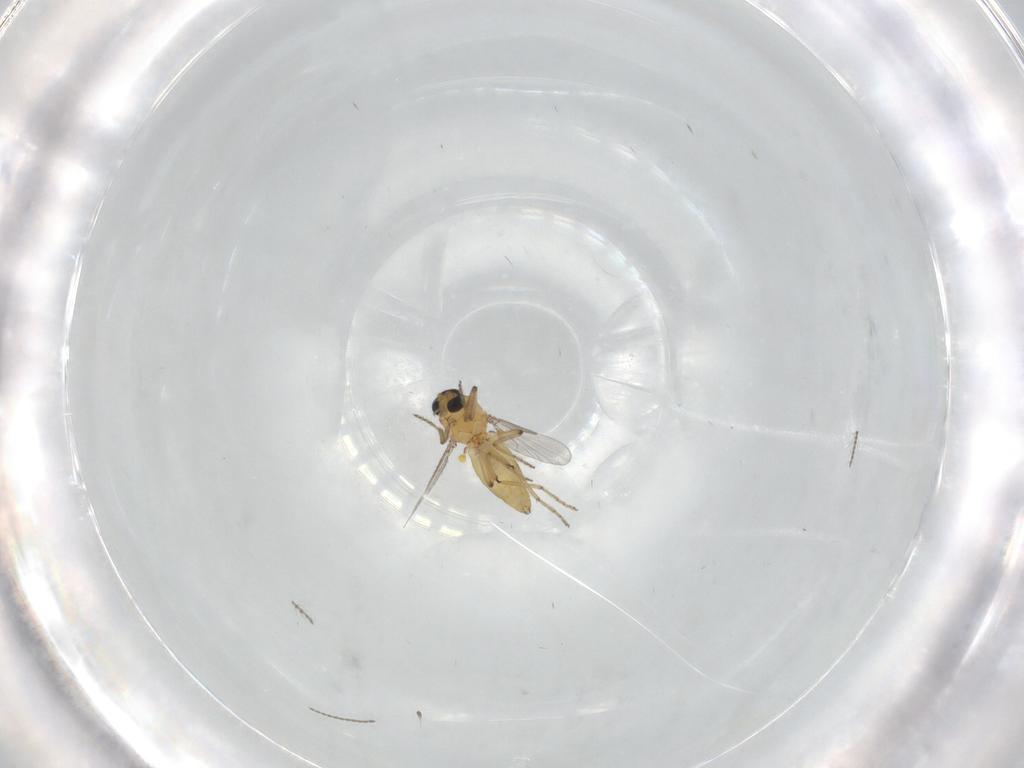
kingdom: Animalia
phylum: Arthropoda
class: Insecta
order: Diptera
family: Ceratopogonidae
